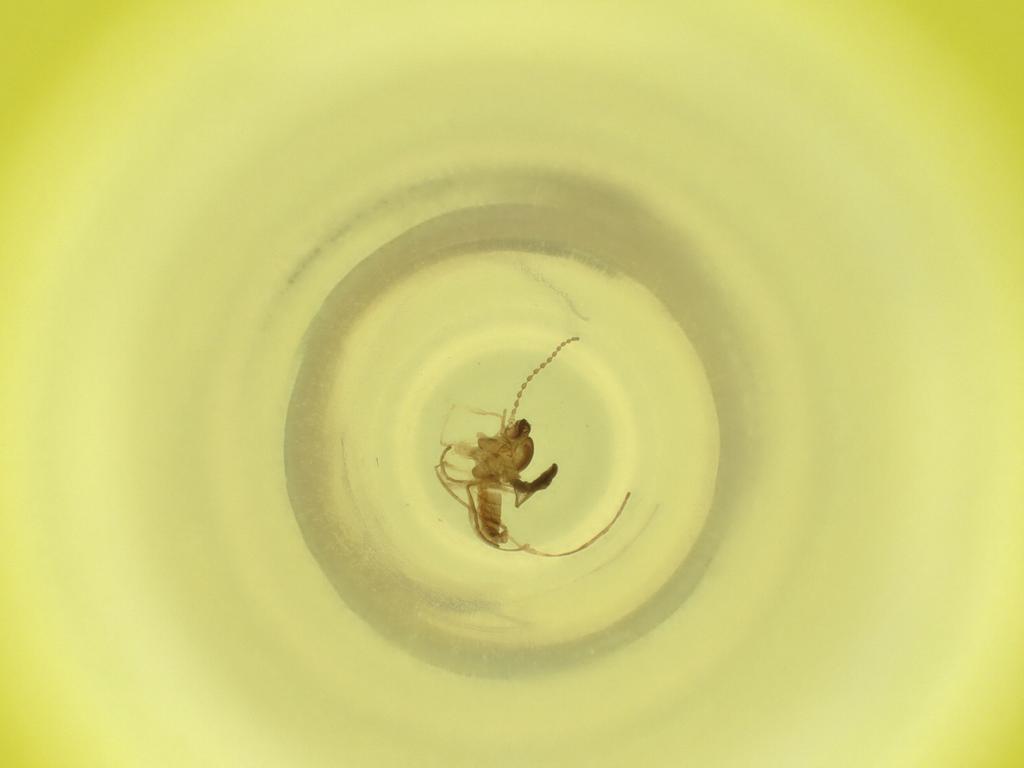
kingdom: Animalia
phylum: Arthropoda
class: Insecta
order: Diptera
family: Cecidomyiidae
